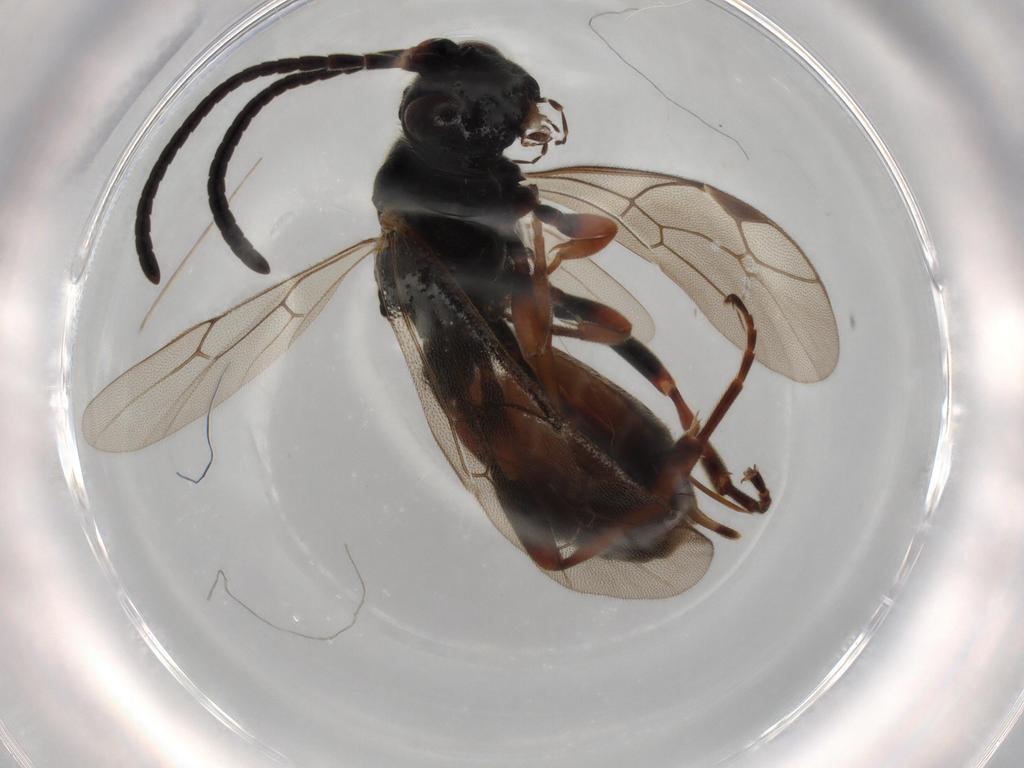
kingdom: Animalia
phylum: Arthropoda
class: Insecta
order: Hymenoptera
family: Ichneumonidae
